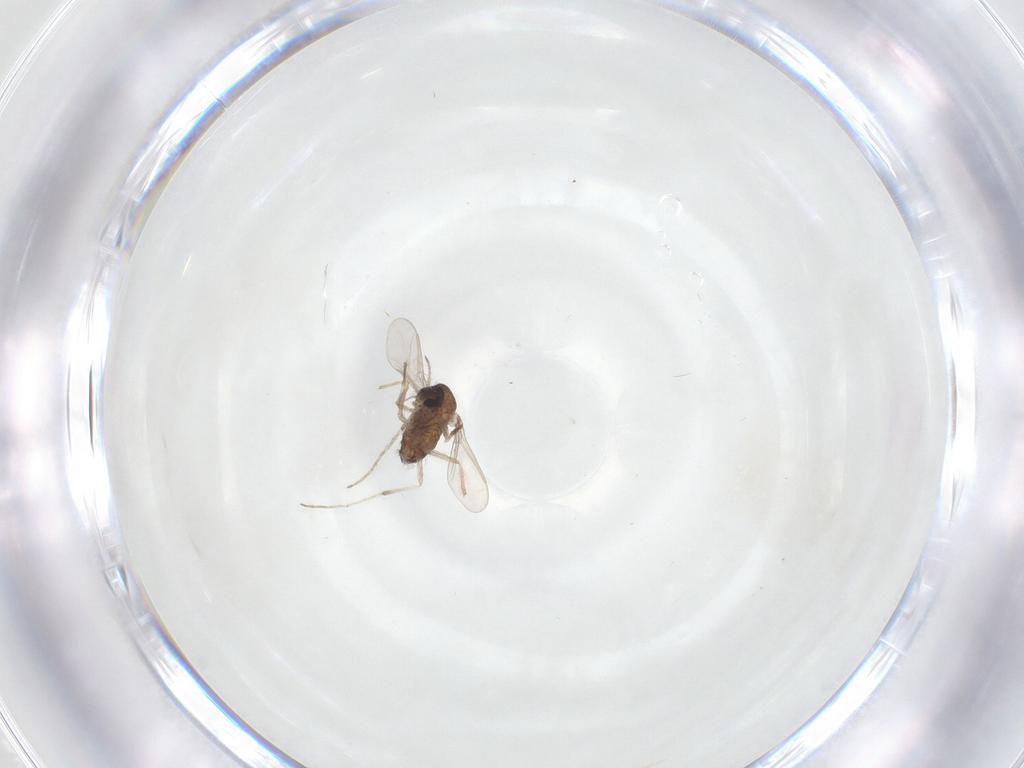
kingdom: Animalia
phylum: Arthropoda
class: Insecta
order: Diptera
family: Chironomidae
